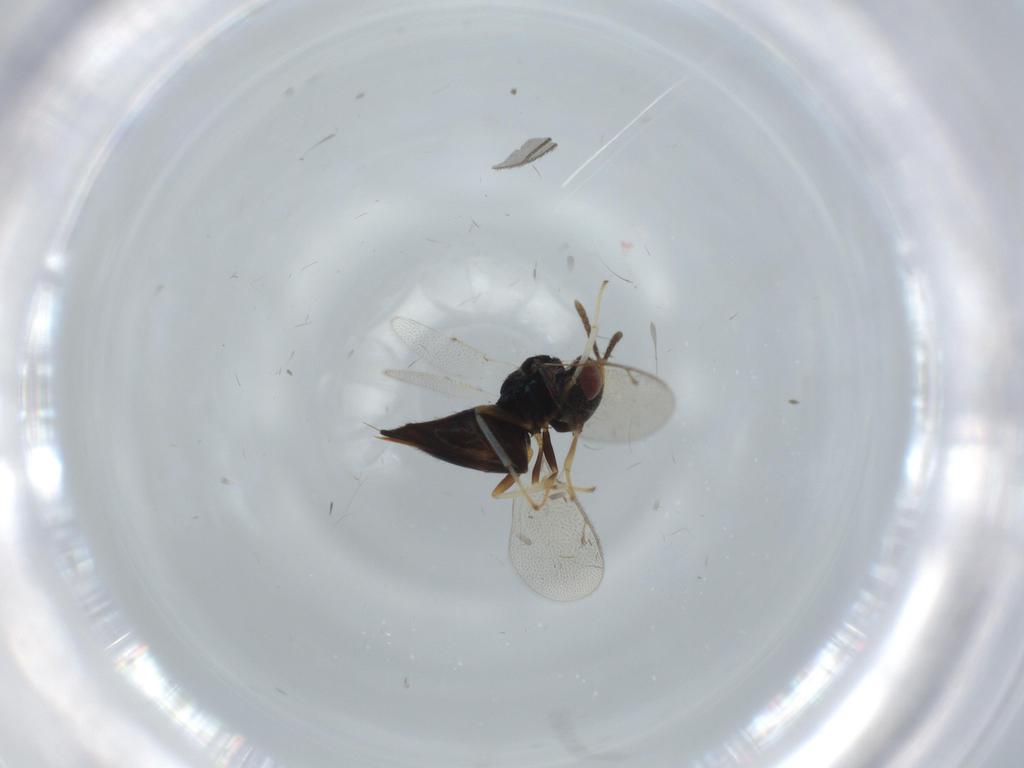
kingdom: Animalia
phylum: Arthropoda
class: Insecta
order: Hymenoptera
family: Pteromalidae
